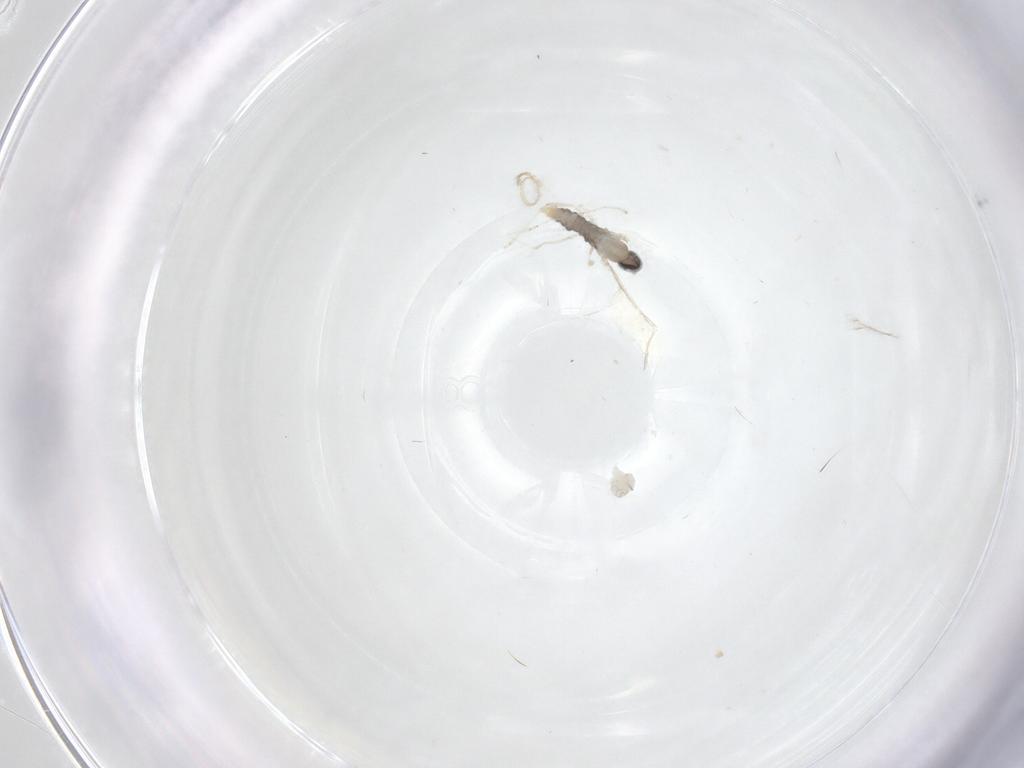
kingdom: Animalia
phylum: Arthropoda
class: Insecta
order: Diptera
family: Cecidomyiidae
